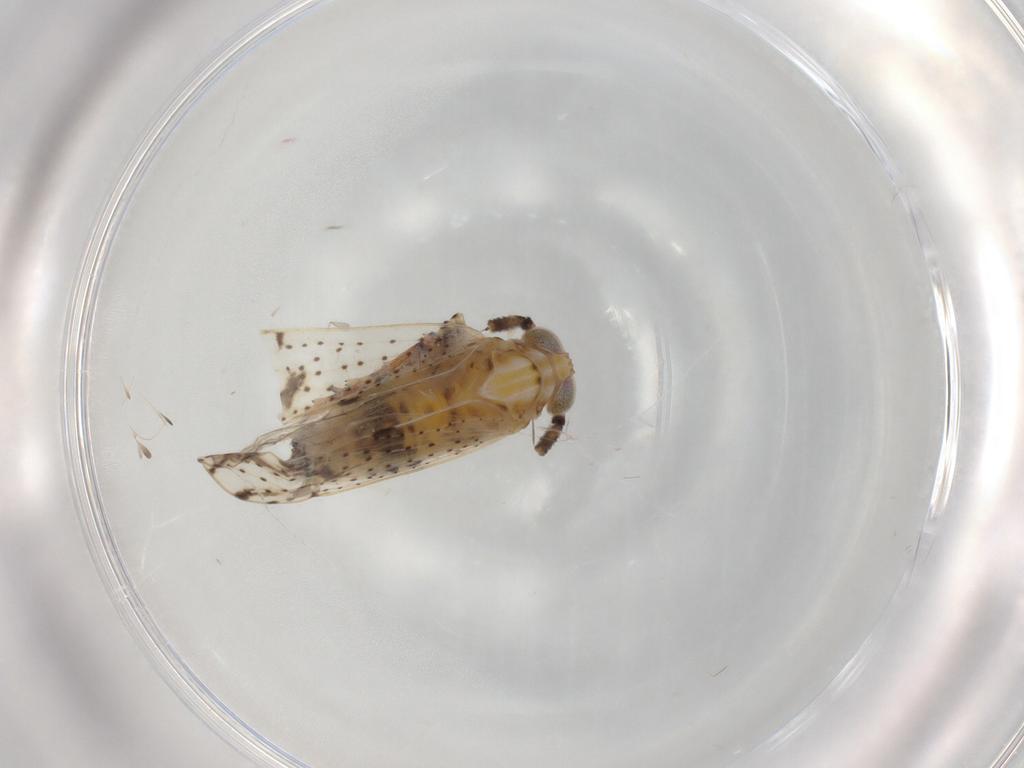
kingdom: Animalia
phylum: Arthropoda
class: Insecta
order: Hemiptera
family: Delphacidae
